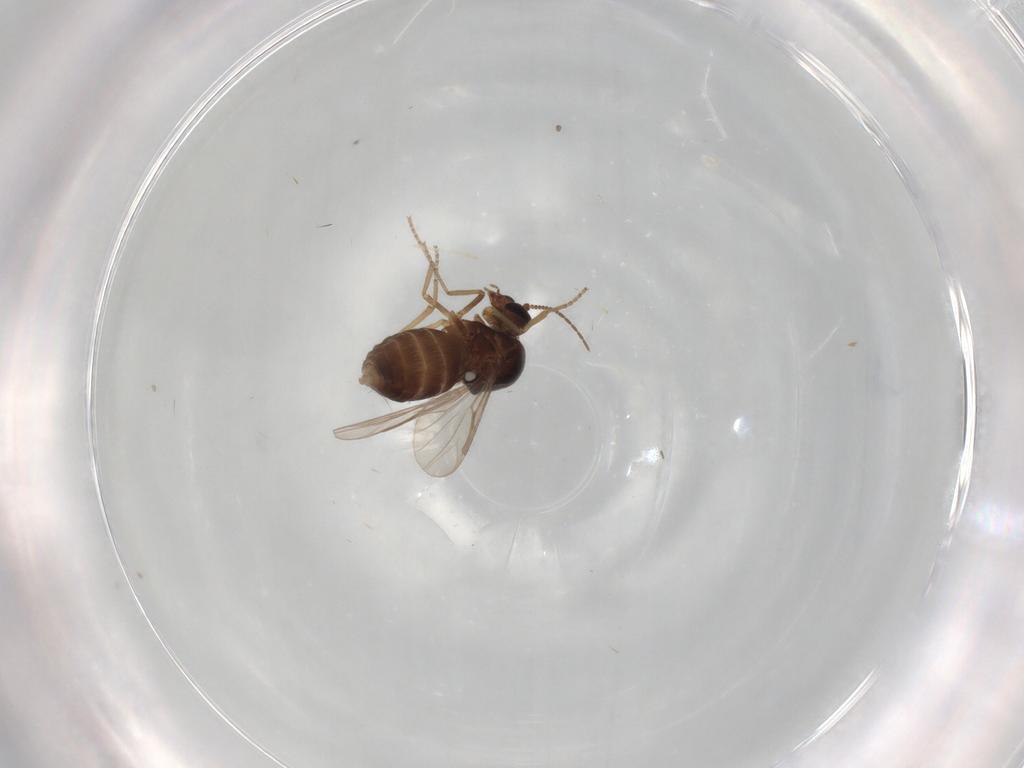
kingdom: Animalia
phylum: Arthropoda
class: Insecta
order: Diptera
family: Ceratopogonidae
